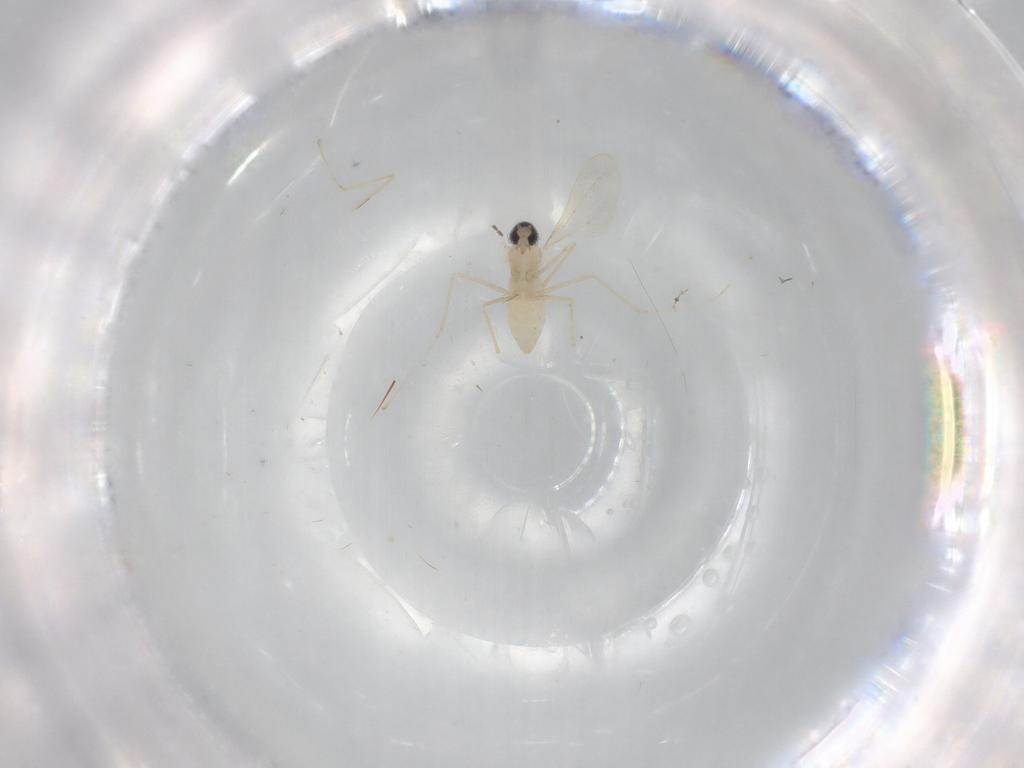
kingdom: Animalia
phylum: Arthropoda
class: Insecta
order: Diptera
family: Cecidomyiidae
